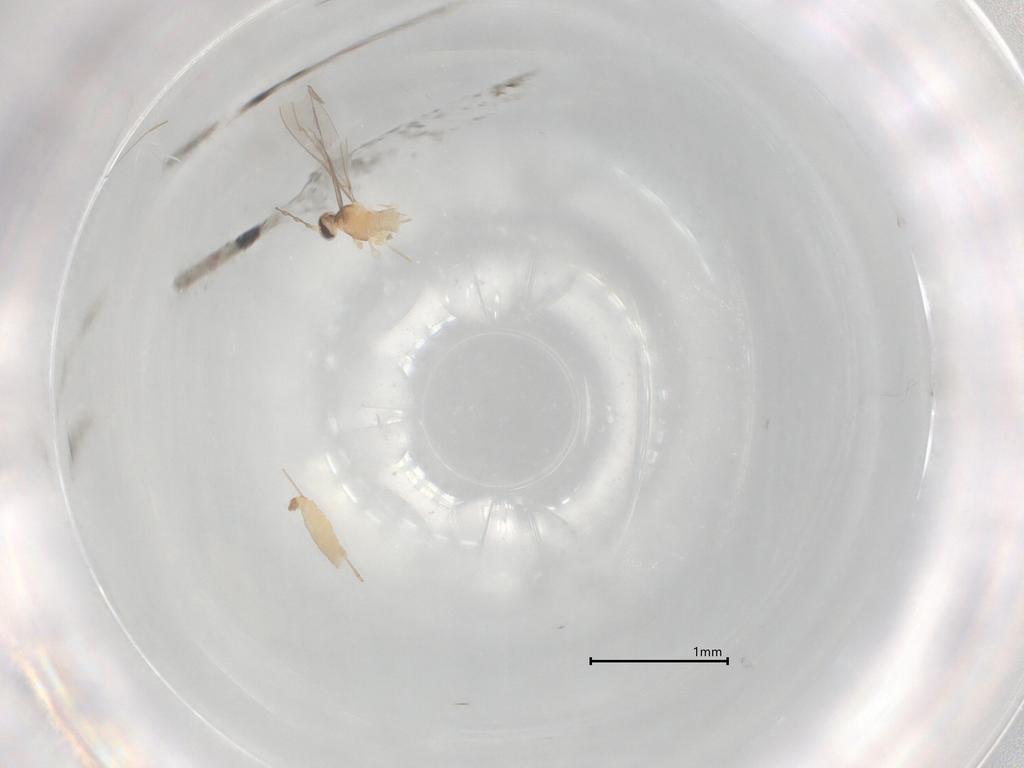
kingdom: Animalia
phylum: Arthropoda
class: Insecta
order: Diptera
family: Cecidomyiidae
